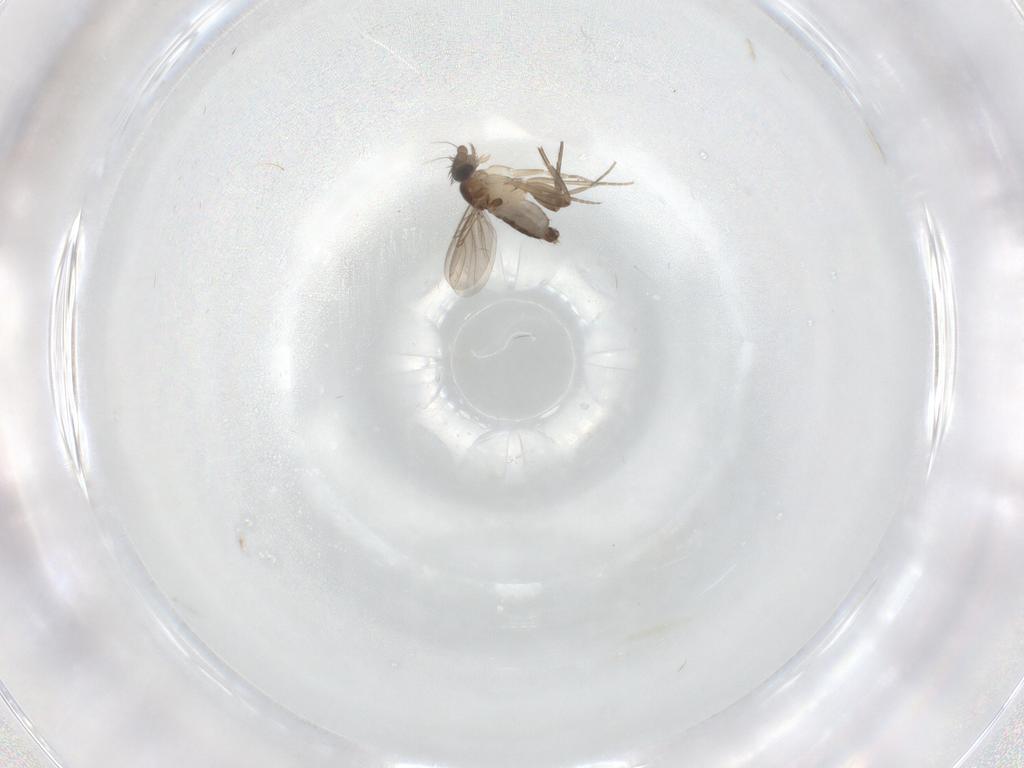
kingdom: Animalia
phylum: Arthropoda
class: Insecta
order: Diptera
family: Phoridae
